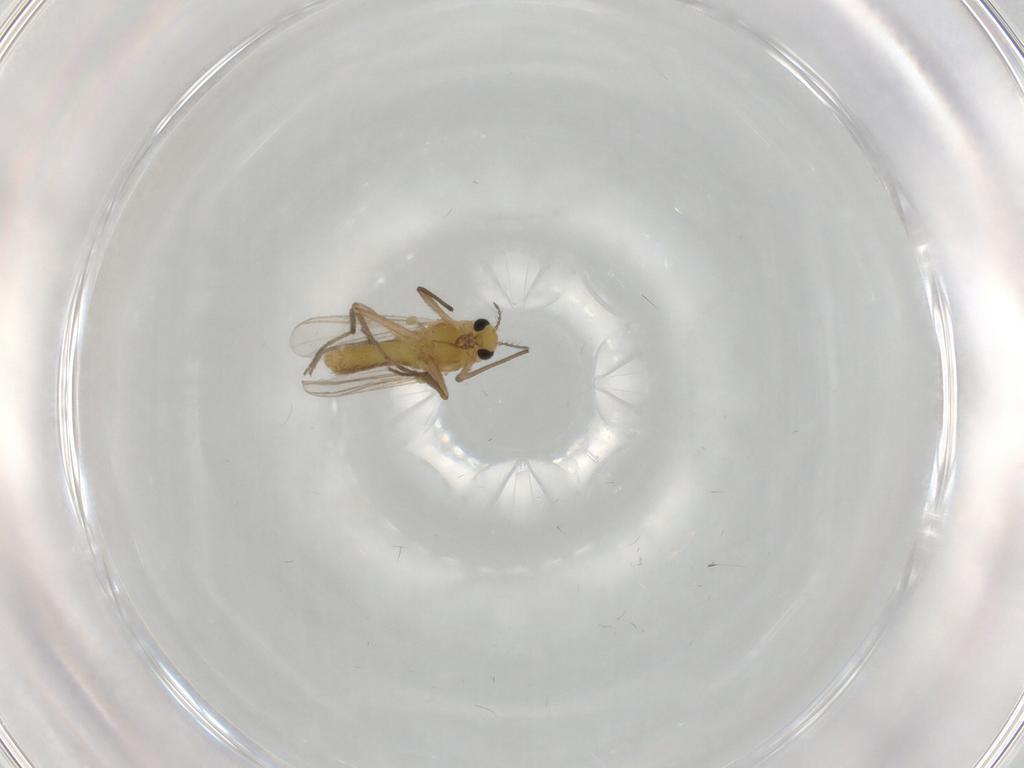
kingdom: Animalia
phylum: Arthropoda
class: Insecta
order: Diptera
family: Chironomidae
